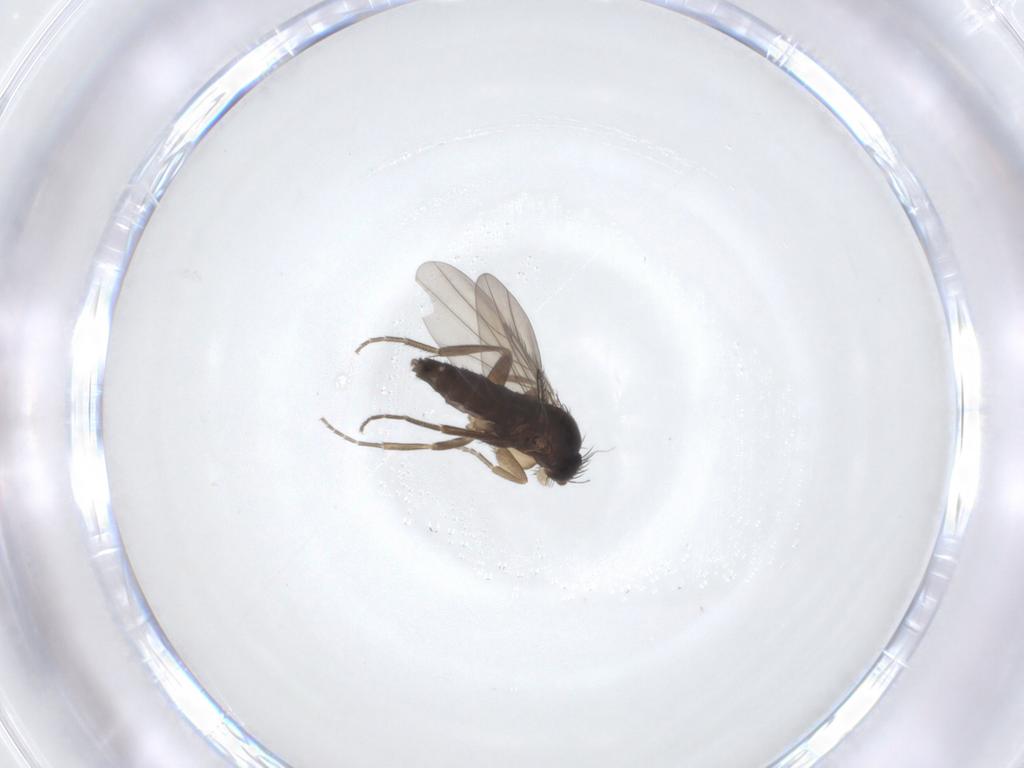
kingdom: Animalia
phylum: Arthropoda
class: Insecta
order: Diptera
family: Phoridae
